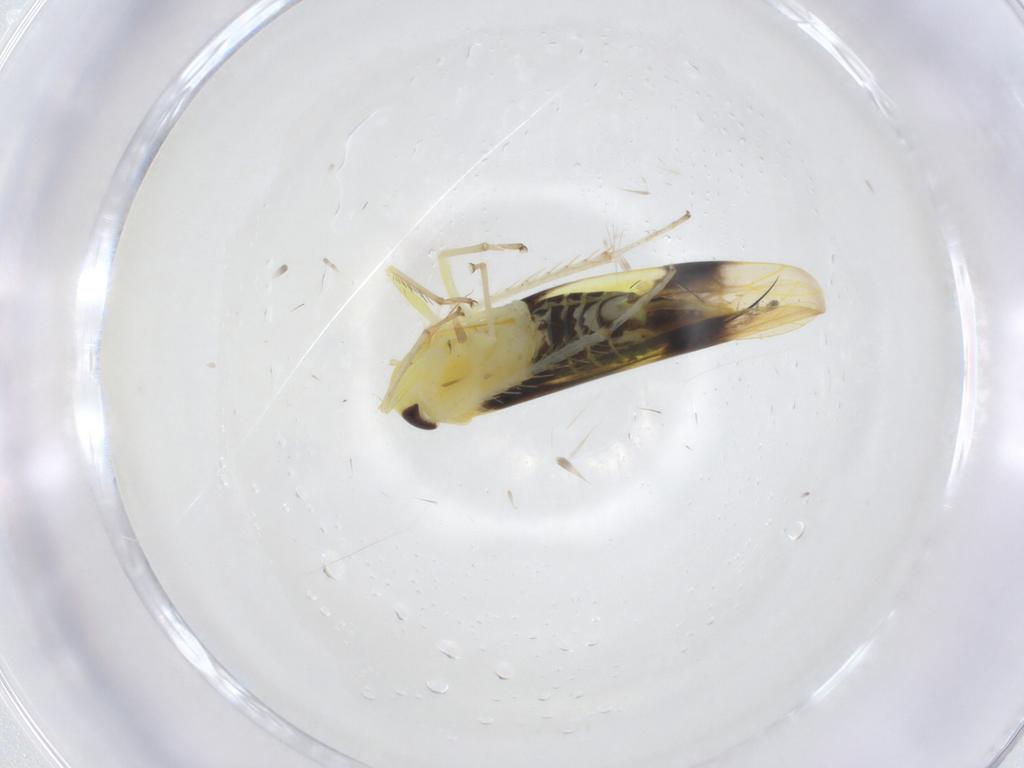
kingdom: Animalia
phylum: Arthropoda
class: Insecta
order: Hemiptera
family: Cicadellidae
